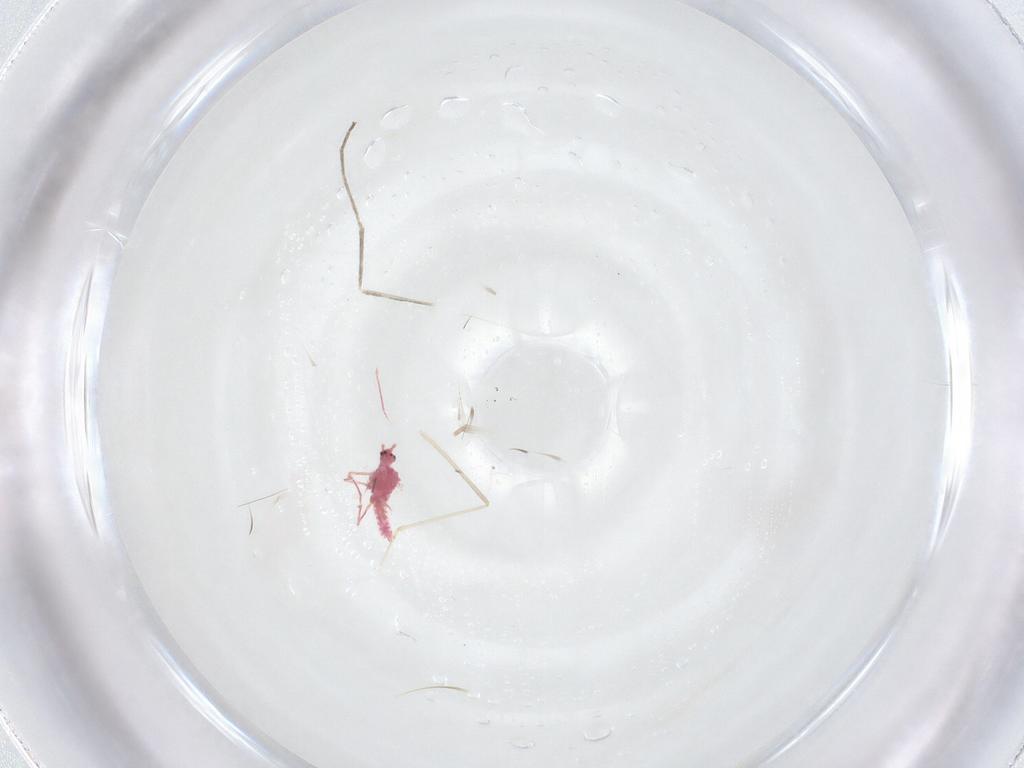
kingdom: Animalia
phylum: Arthropoda
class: Insecta
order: Diptera
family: Cecidomyiidae
